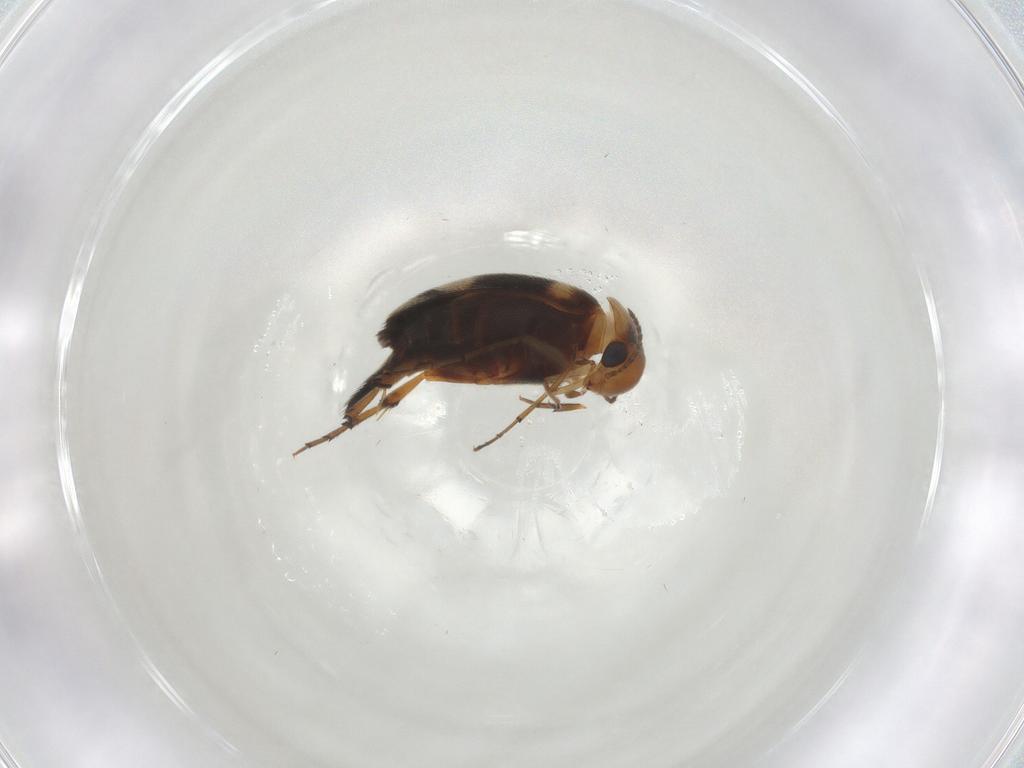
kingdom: Animalia
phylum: Arthropoda
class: Insecta
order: Coleoptera
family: Mordellidae
